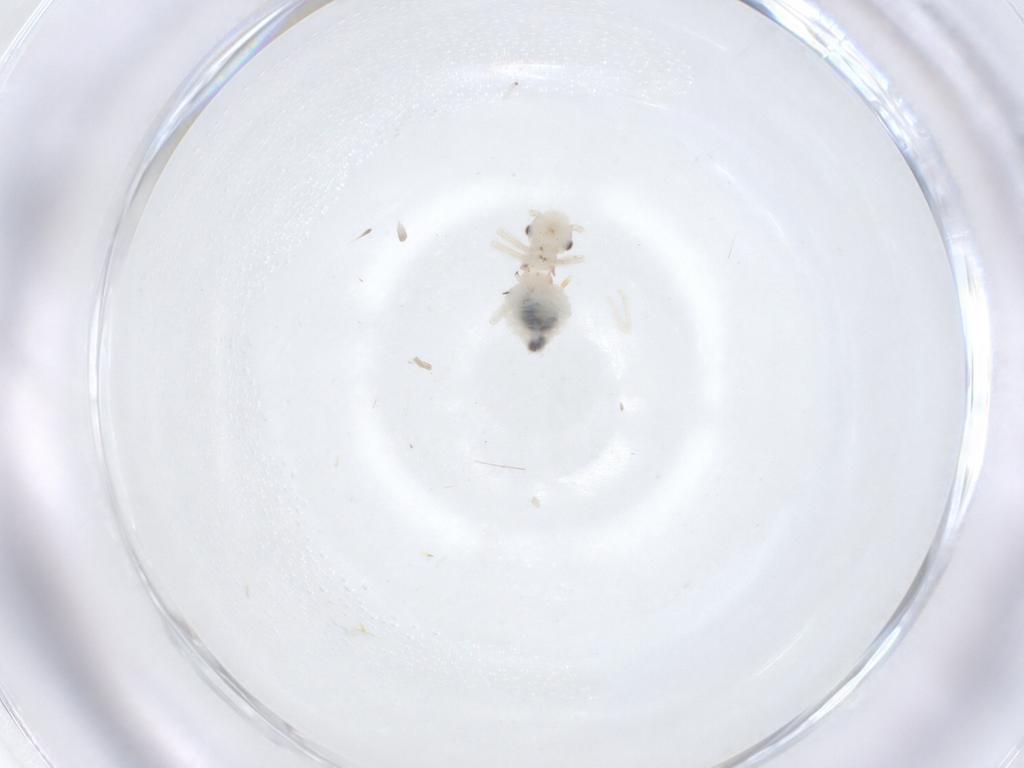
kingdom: Animalia
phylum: Arthropoda
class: Insecta
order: Psocodea
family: Amphipsocidae
